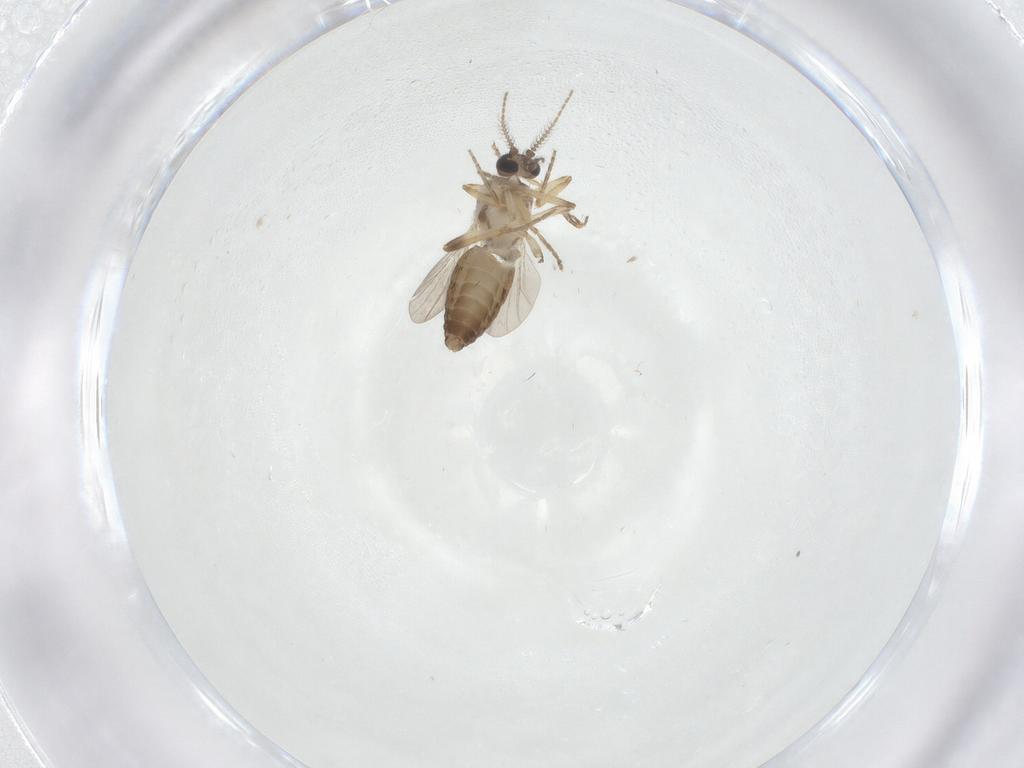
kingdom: Animalia
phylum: Arthropoda
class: Insecta
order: Diptera
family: Ceratopogonidae
